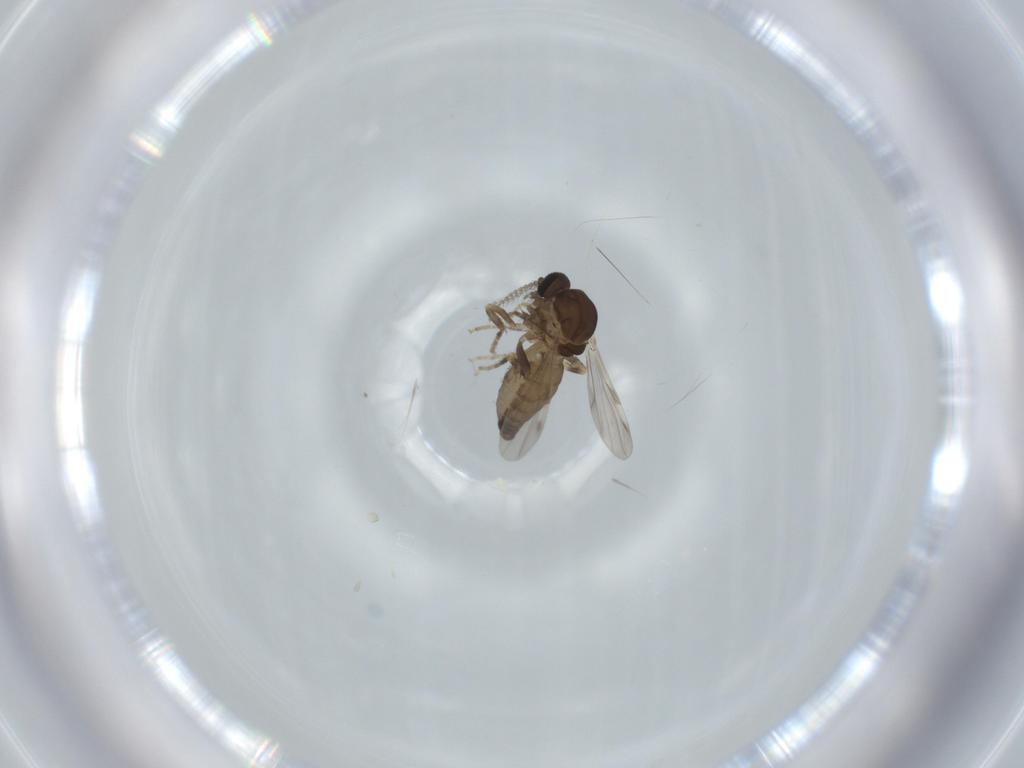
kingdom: Animalia
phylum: Arthropoda
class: Insecta
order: Diptera
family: Ceratopogonidae
